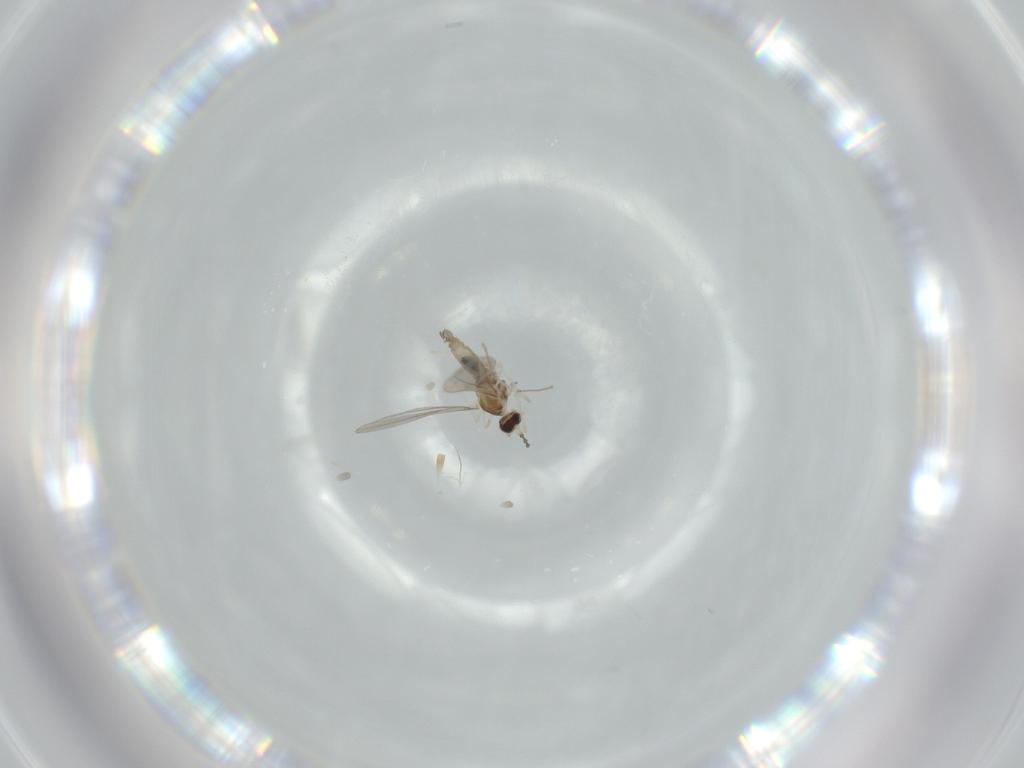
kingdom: Animalia
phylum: Arthropoda
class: Insecta
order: Diptera
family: Cecidomyiidae
